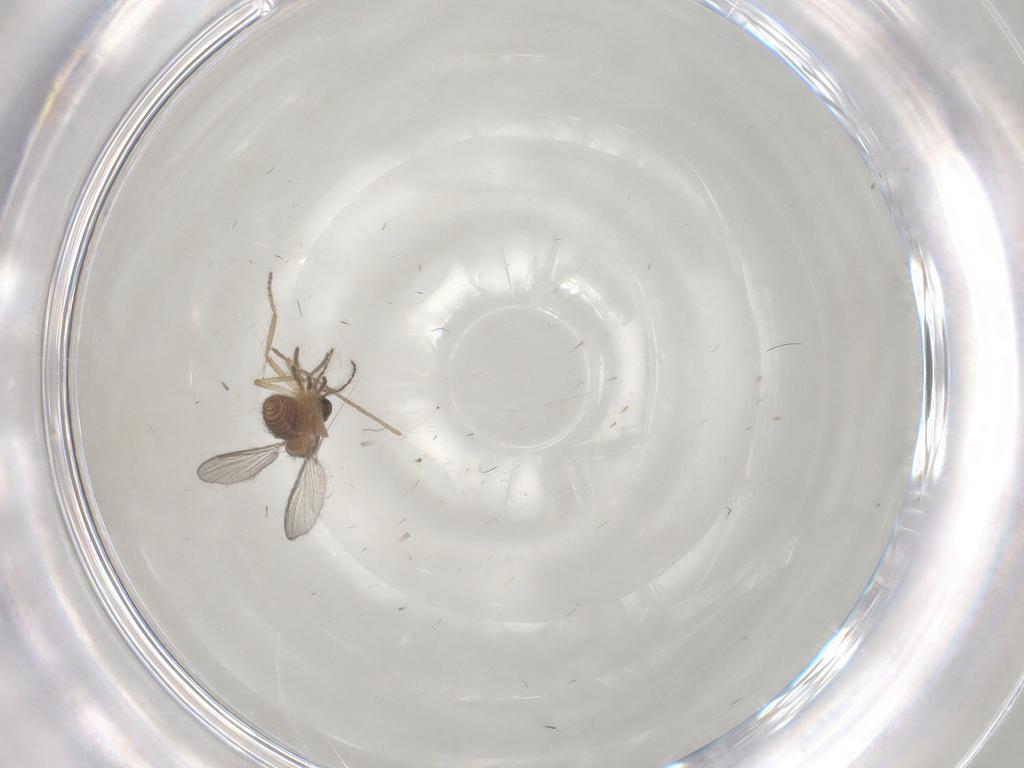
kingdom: Animalia
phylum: Arthropoda
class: Insecta
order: Diptera
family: Ceratopogonidae
